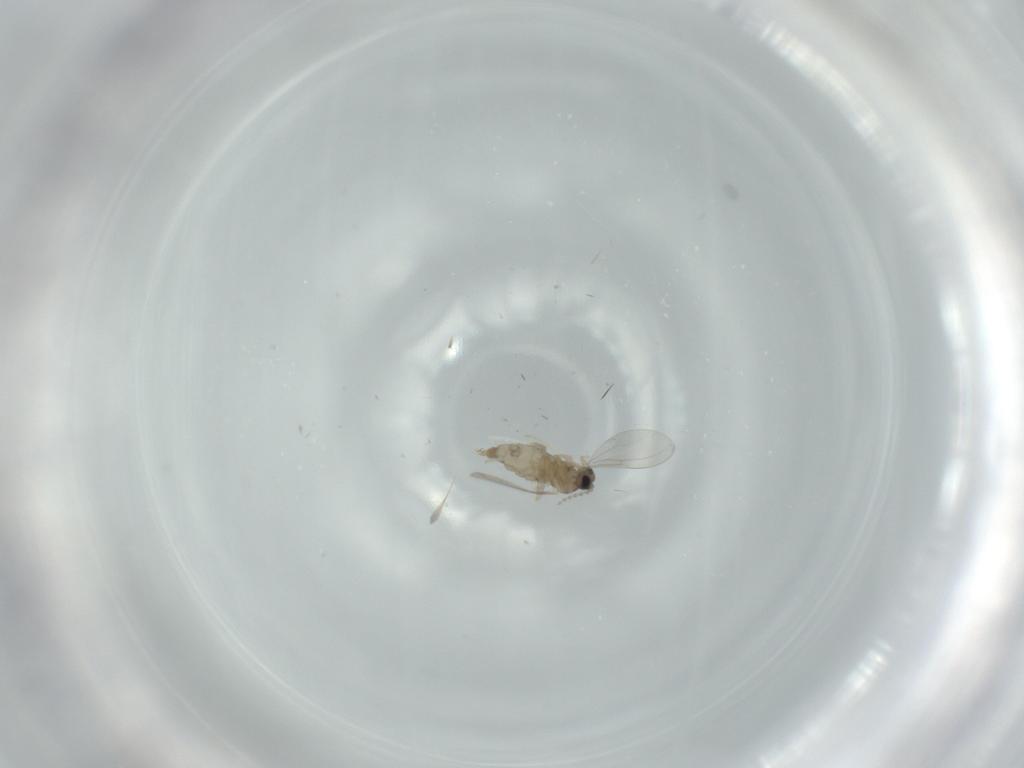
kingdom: Animalia
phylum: Arthropoda
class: Insecta
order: Diptera
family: Cecidomyiidae
